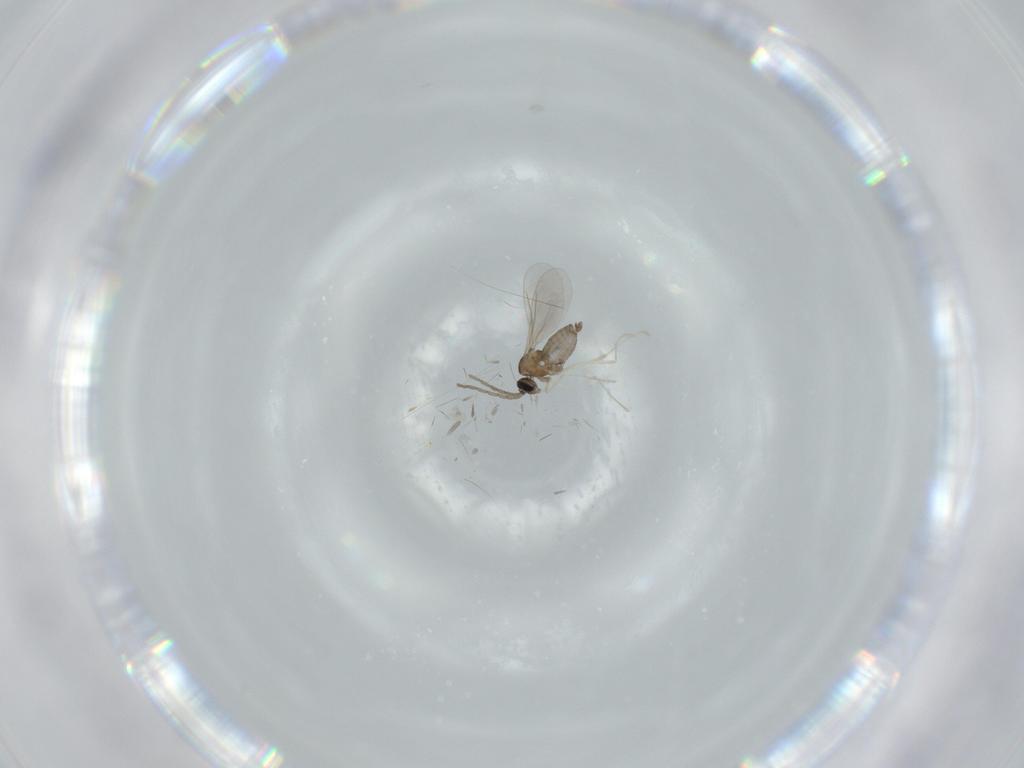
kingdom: Animalia
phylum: Arthropoda
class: Insecta
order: Diptera
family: Cecidomyiidae
